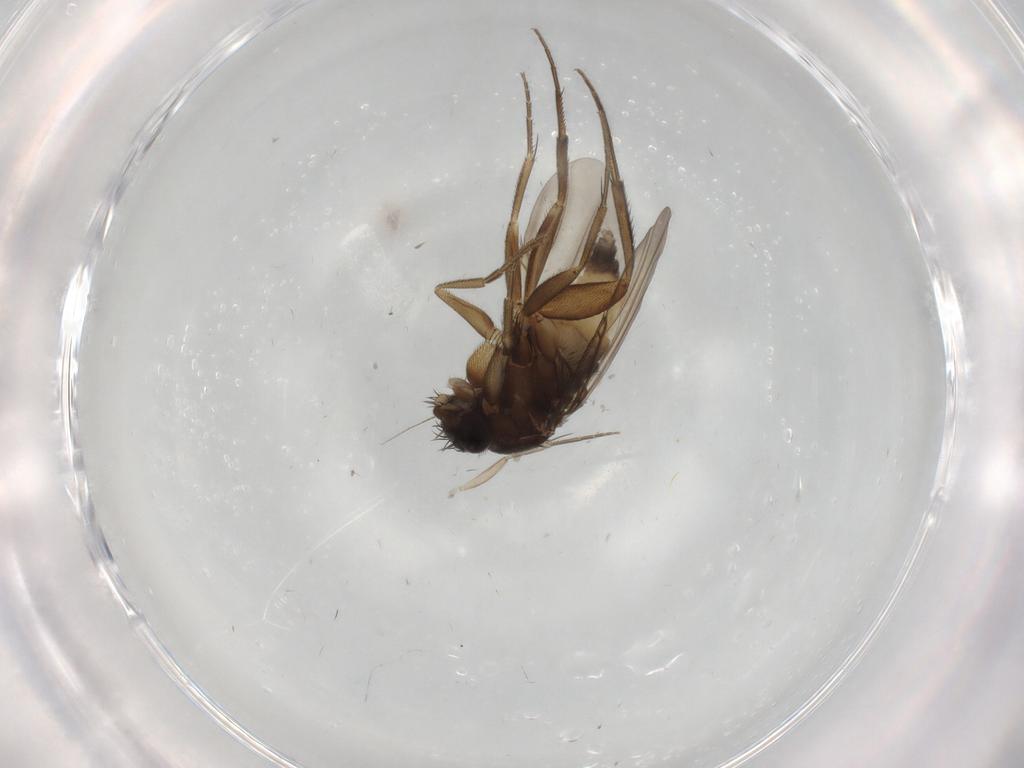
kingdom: Animalia
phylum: Arthropoda
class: Insecta
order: Diptera
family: Phoridae
